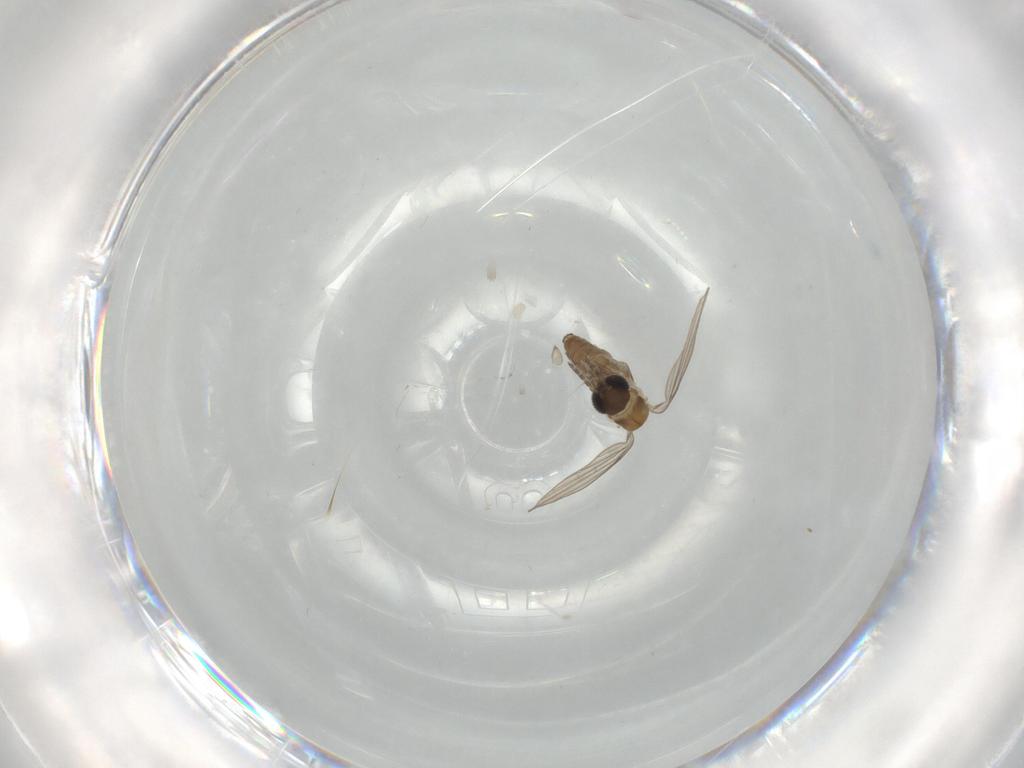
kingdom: Animalia
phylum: Arthropoda
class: Insecta
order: Diptera
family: Psychodidae
